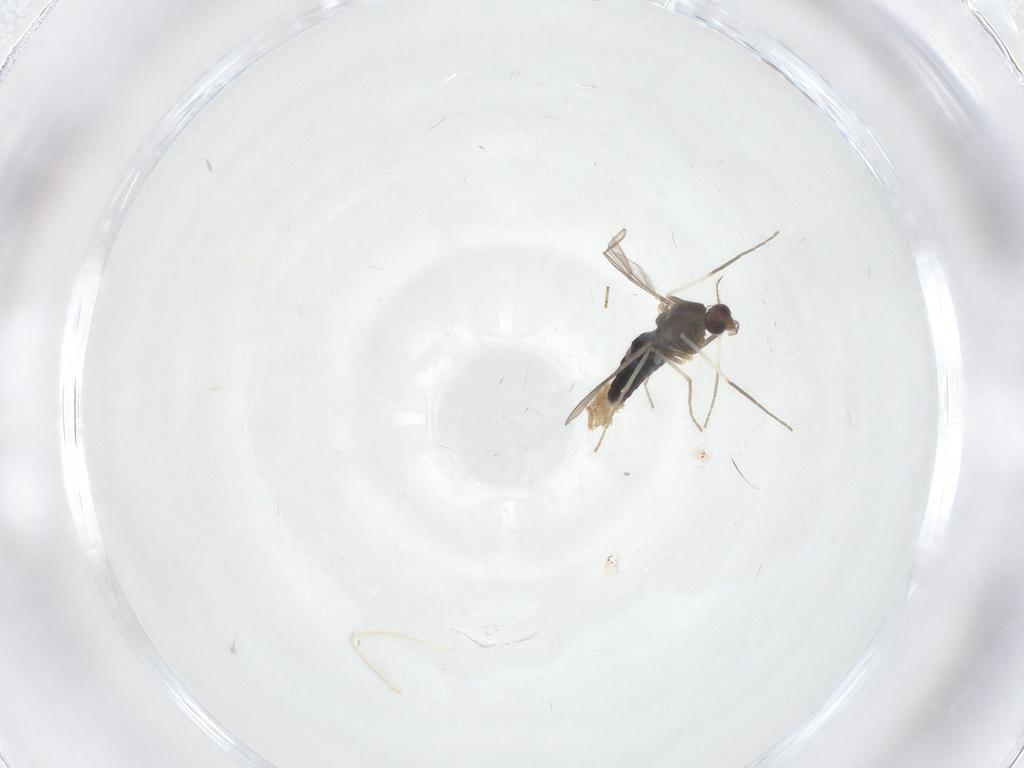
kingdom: Animalia
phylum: Arthropoda
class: Insecta
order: Diptera
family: Chironomidae
